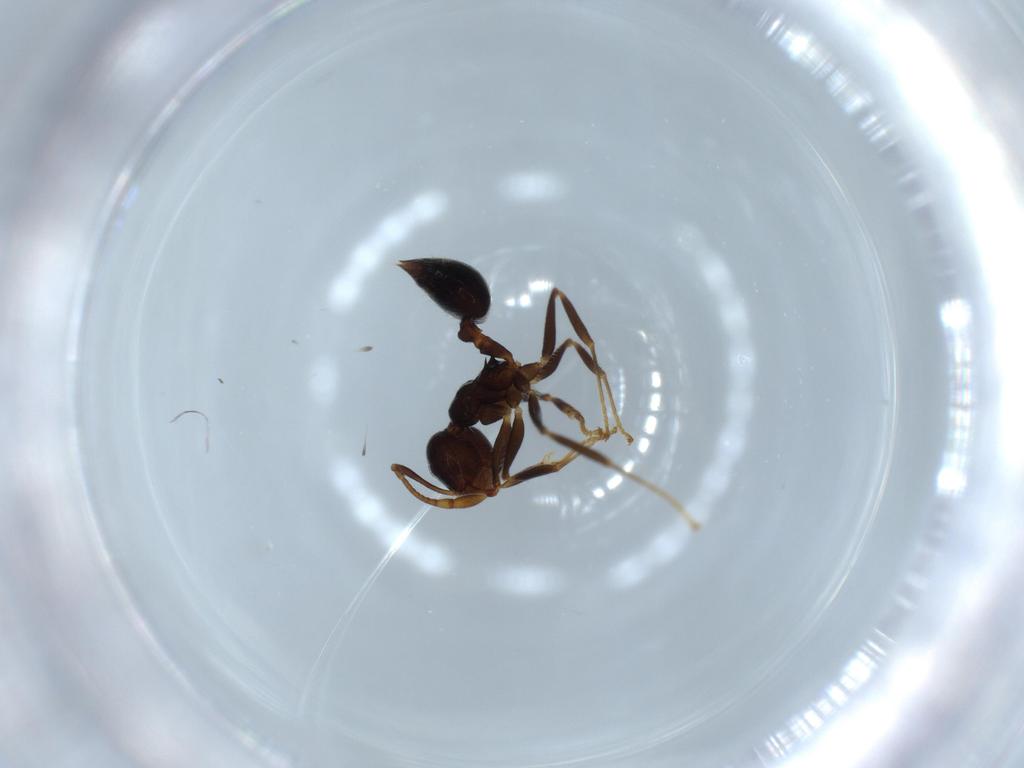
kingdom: Animalia
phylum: Arthropoda
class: Insecta
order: Hymenoptera
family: Formicidae
